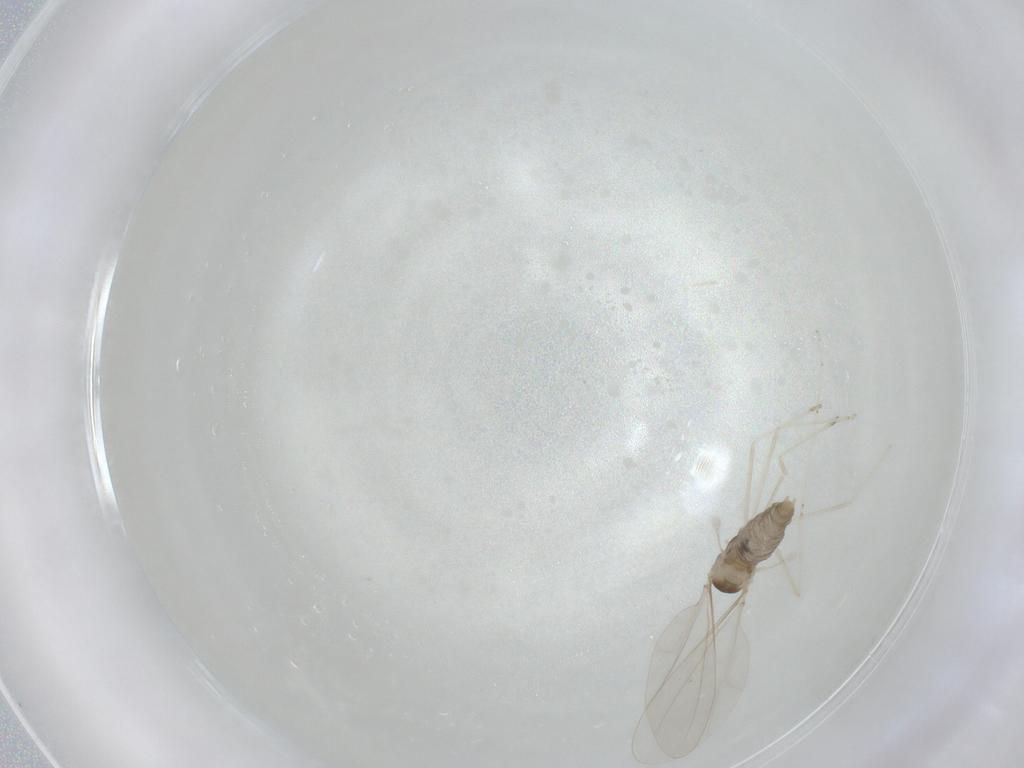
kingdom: Animalia
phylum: Arthropoda
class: Insecta
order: Diptera
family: Cecidomyiidae
